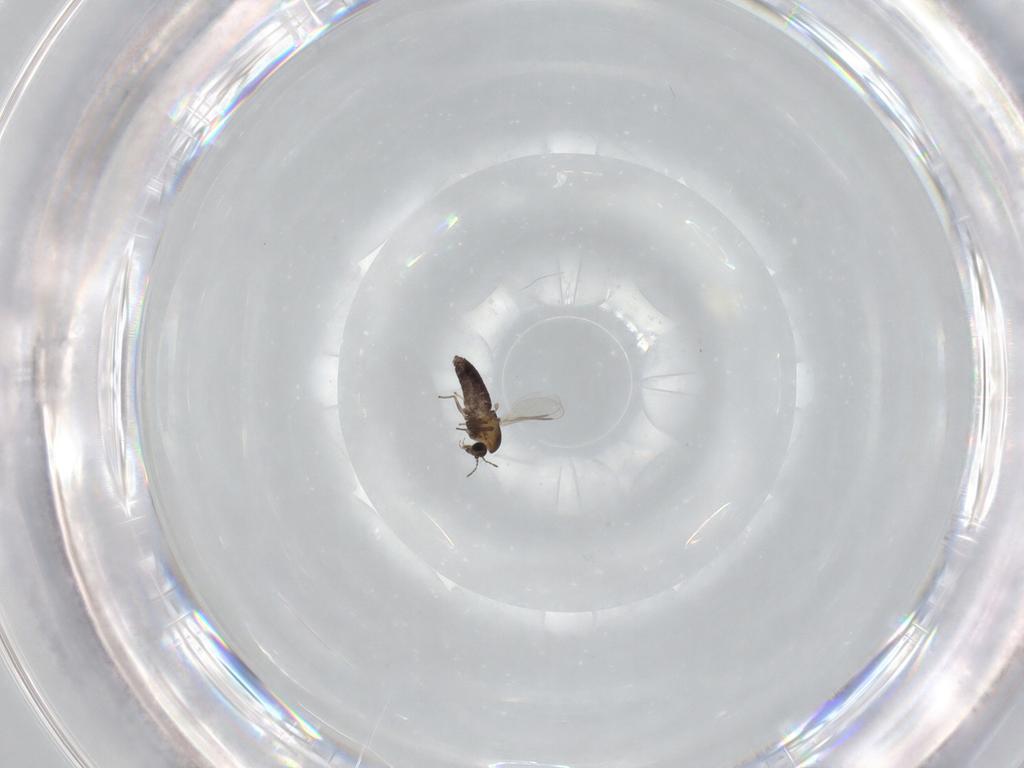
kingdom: Animalia
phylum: Arthropoda
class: Insecta
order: Diptera
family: Chironomidae
